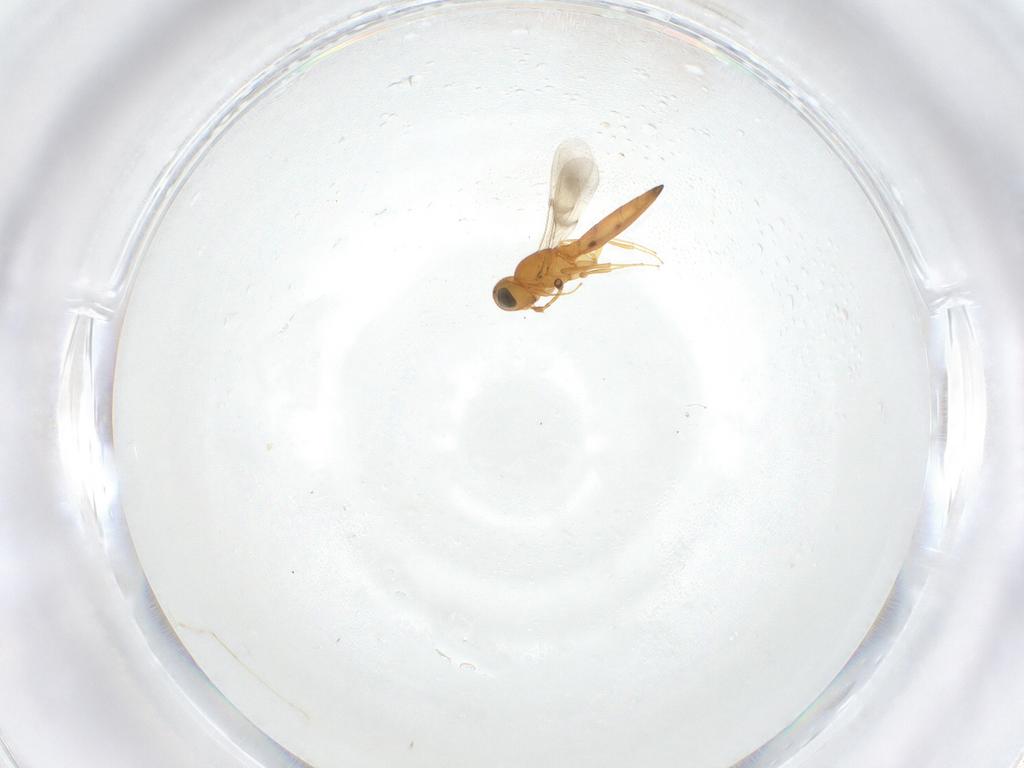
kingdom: Animalia
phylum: Arthropoda
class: Insecta
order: Hymenoptera
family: Scelionidae
